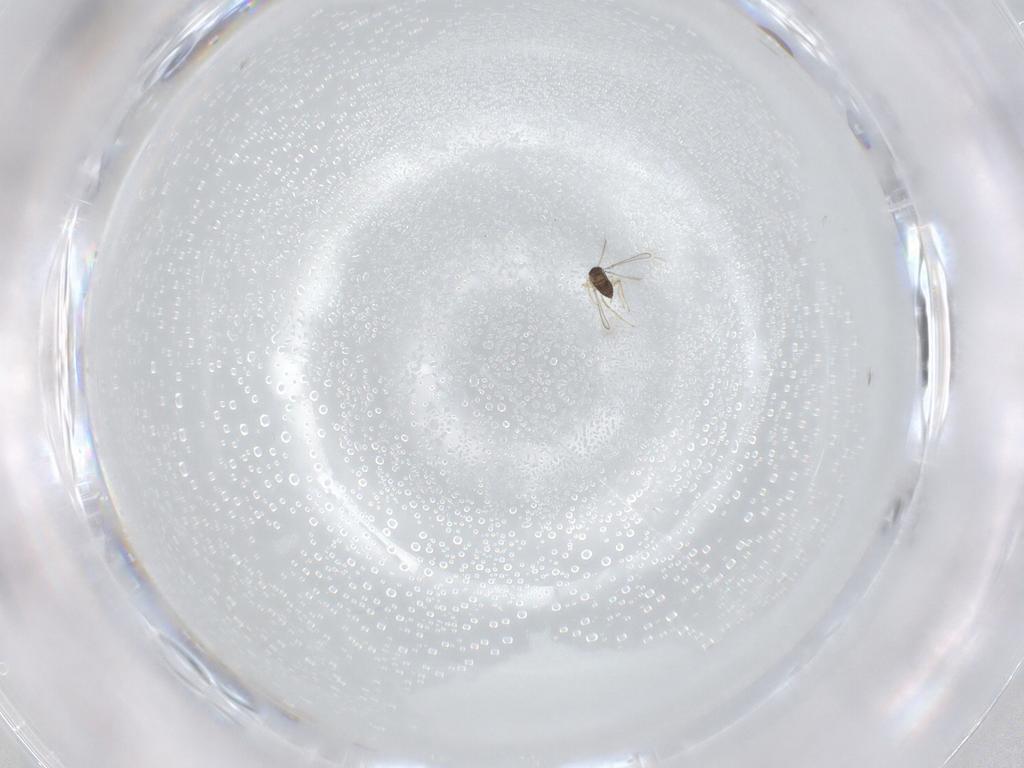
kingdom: Animalia
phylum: Arthropoda
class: Insecta
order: Hymenoptera
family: Mymaridae
